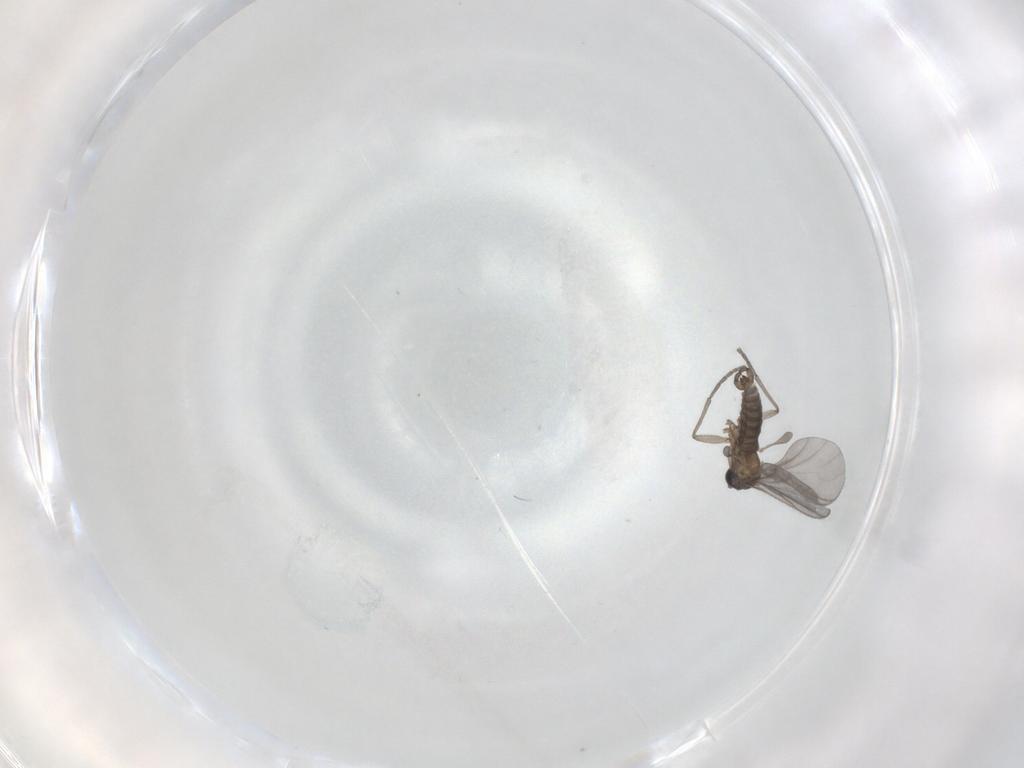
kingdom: Animalia
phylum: Arthropoda
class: Insecta
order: Diptera
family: Sciaridae
